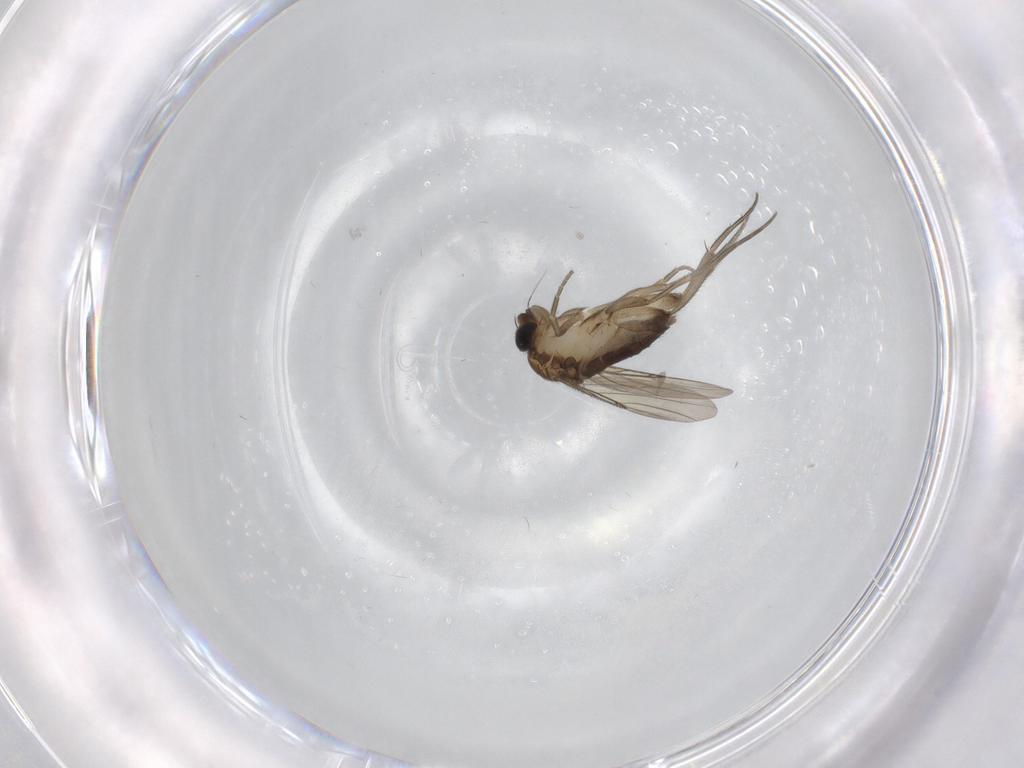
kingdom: Animalia
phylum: Arthropoda
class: Insecta
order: Diptera
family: Phoridae
